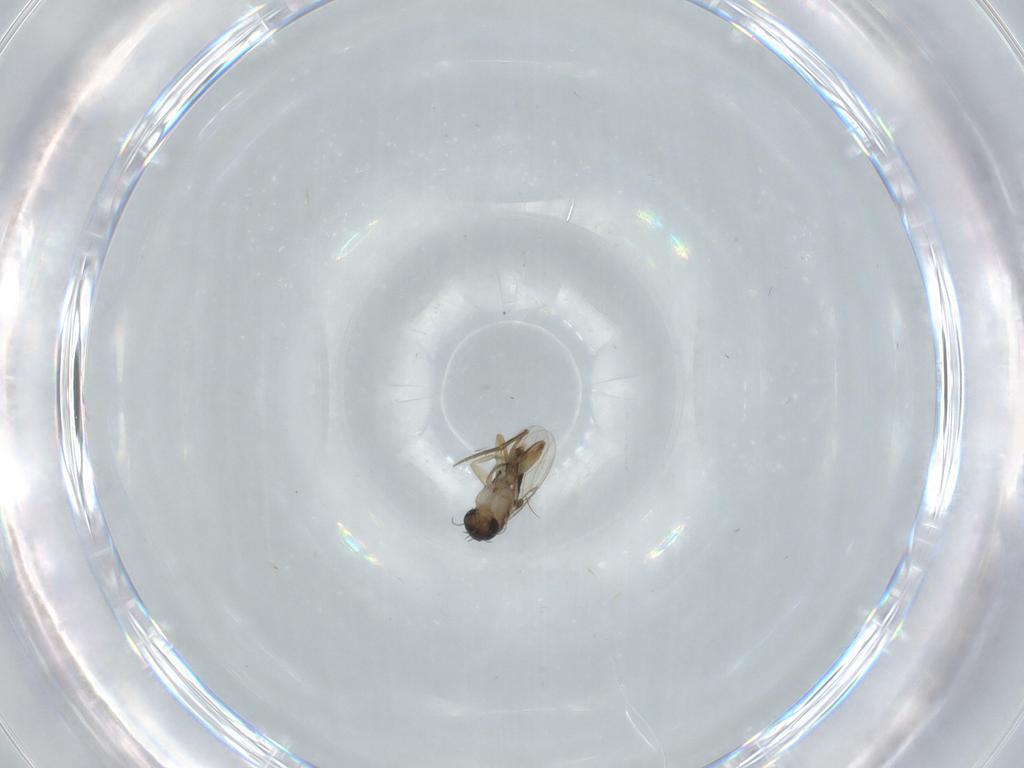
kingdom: Animalia
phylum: Arthropoda
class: Insecta
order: Diptera
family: Phoridae
